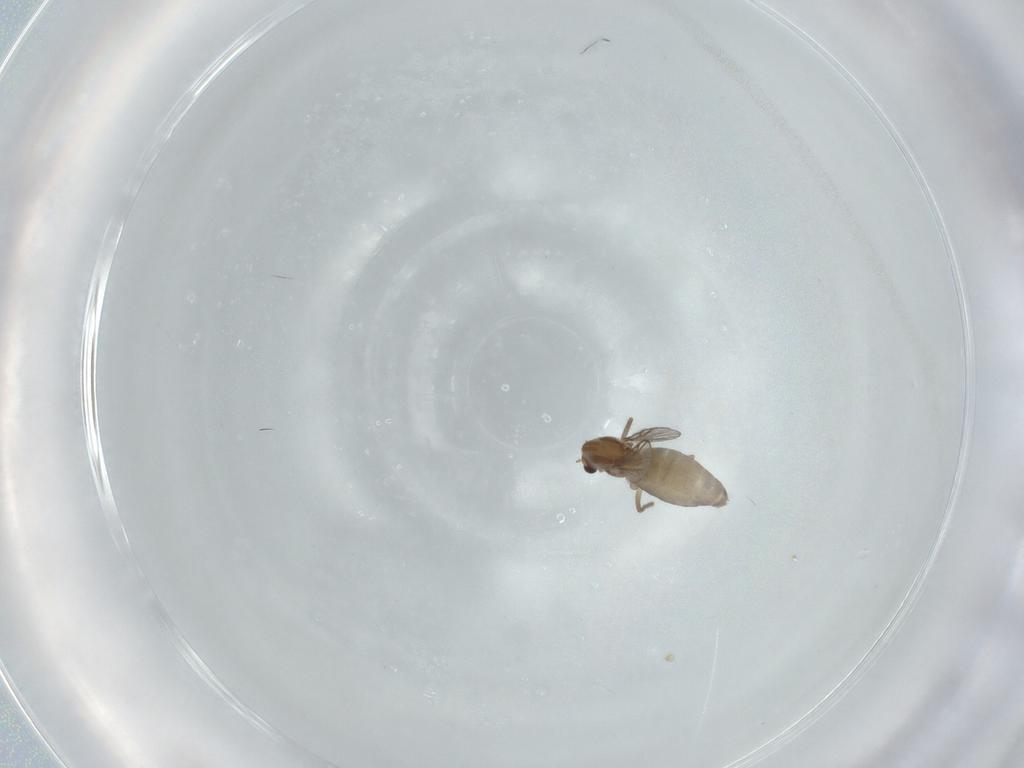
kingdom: Animalia
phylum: Arthropoda
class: Insecta
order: Diptera
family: Chironomidae
